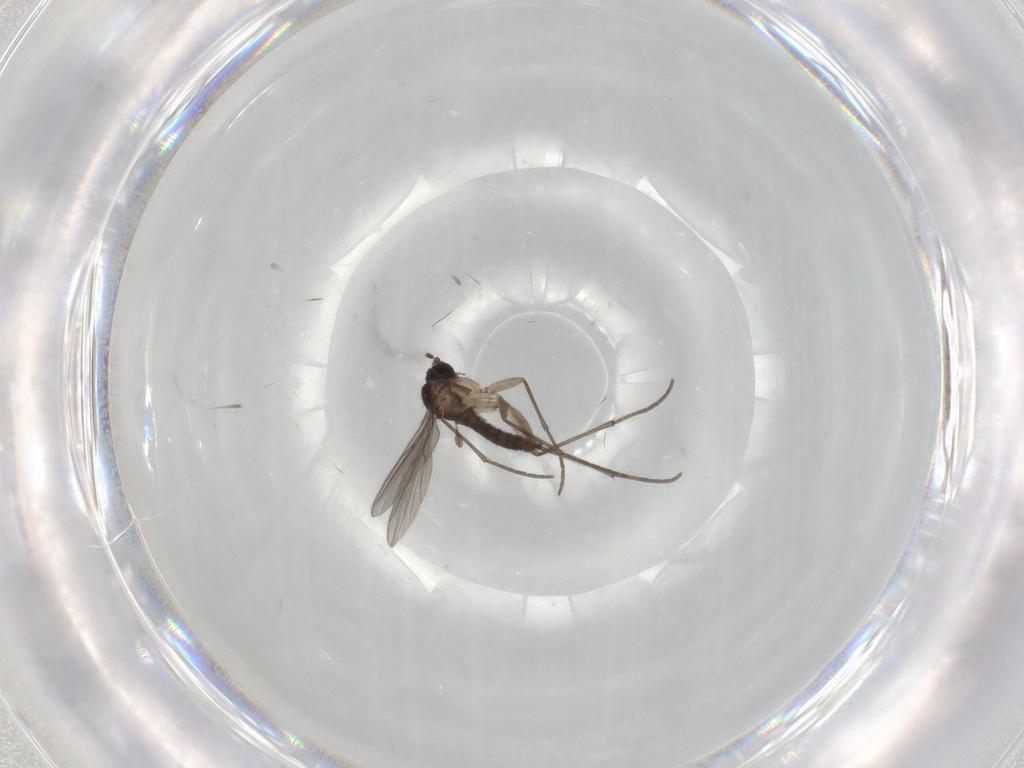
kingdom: Animalia
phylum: Arthropoda
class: Insecta
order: Diptera
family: Sciaridae
